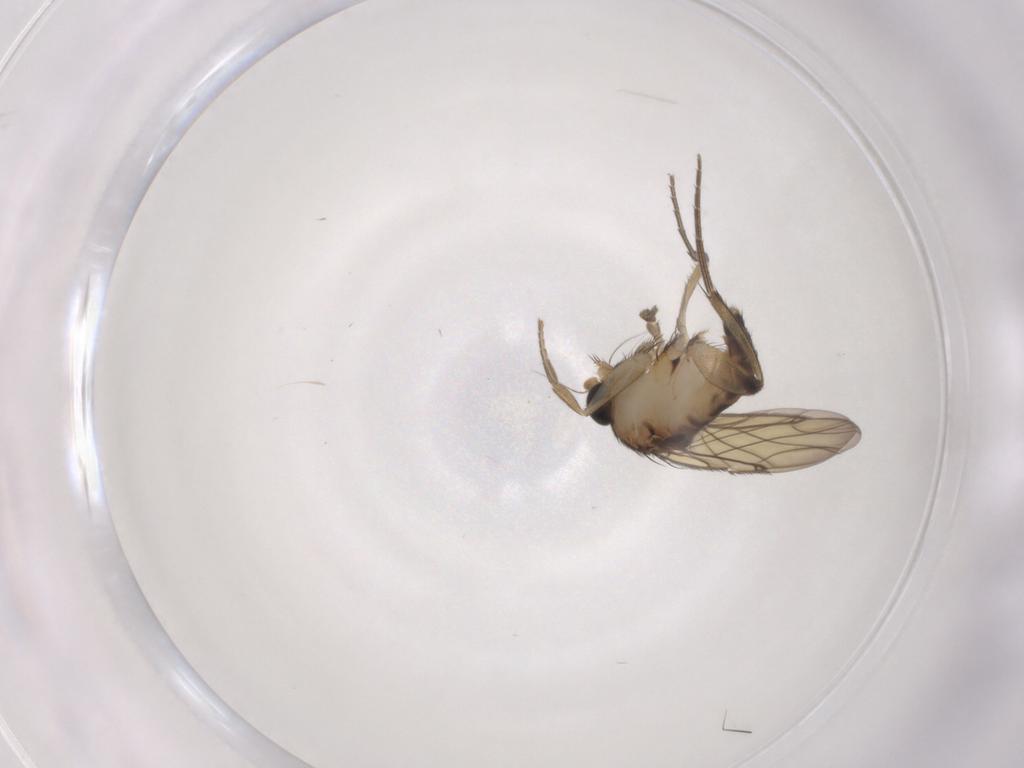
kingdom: Animalia
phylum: Arthropoda
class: Insecta
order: Diptera
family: Phoridae
